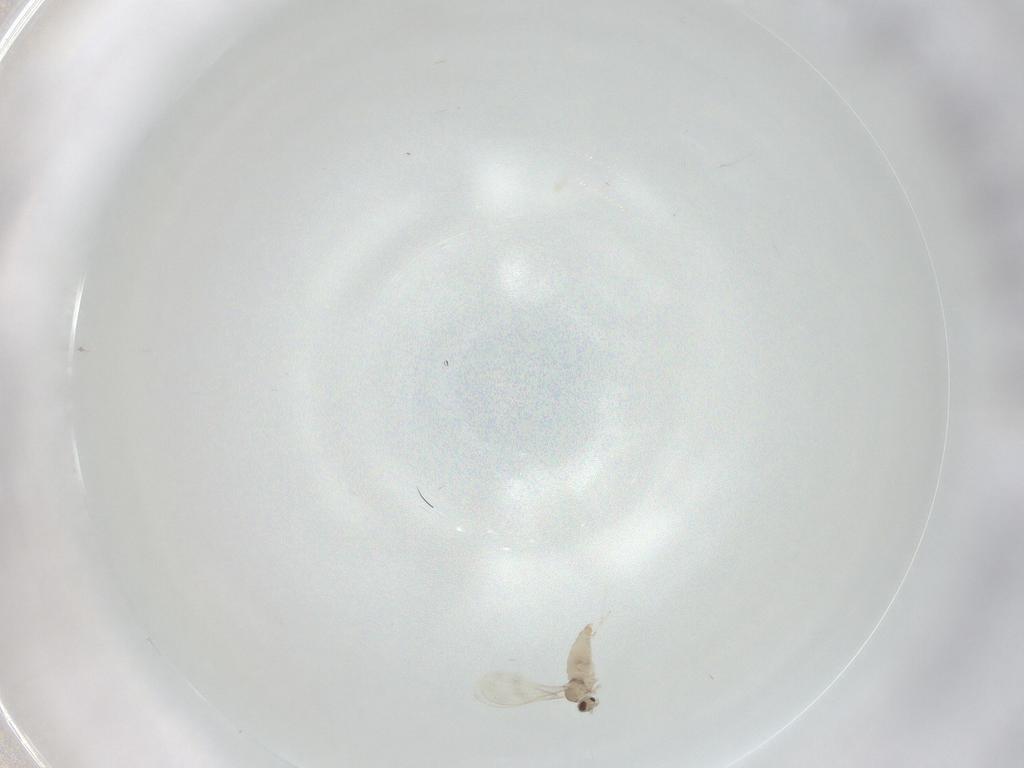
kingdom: Animalia
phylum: Arthropoda
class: Insecta
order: Diptera
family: Cecidomyiidae
